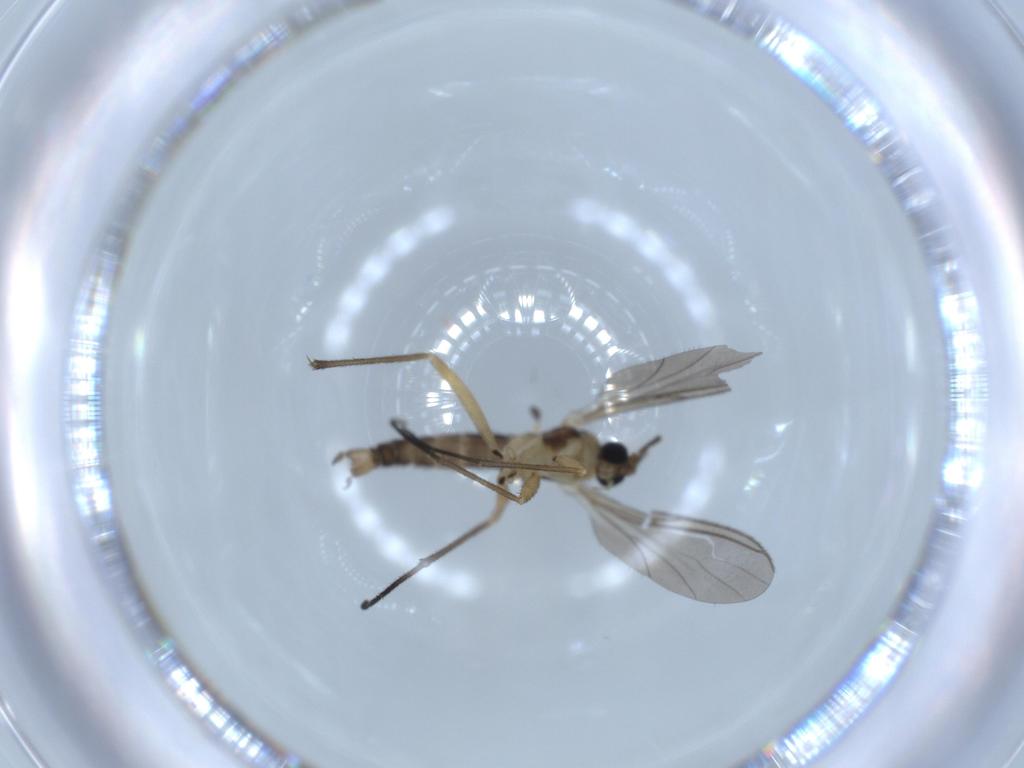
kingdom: Animalia
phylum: Arthropoda
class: Insecta
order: Diptera
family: Sciaridae
